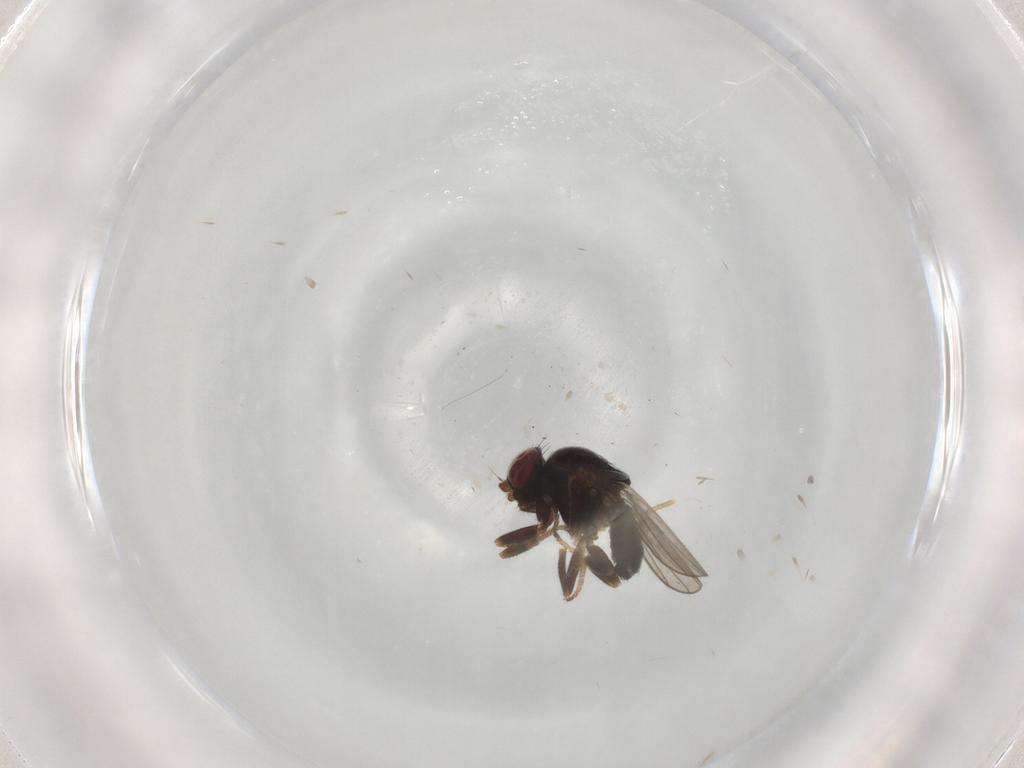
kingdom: Animalia
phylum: Arthropoda
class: Insecta
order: Diptera
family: Chloropidae
